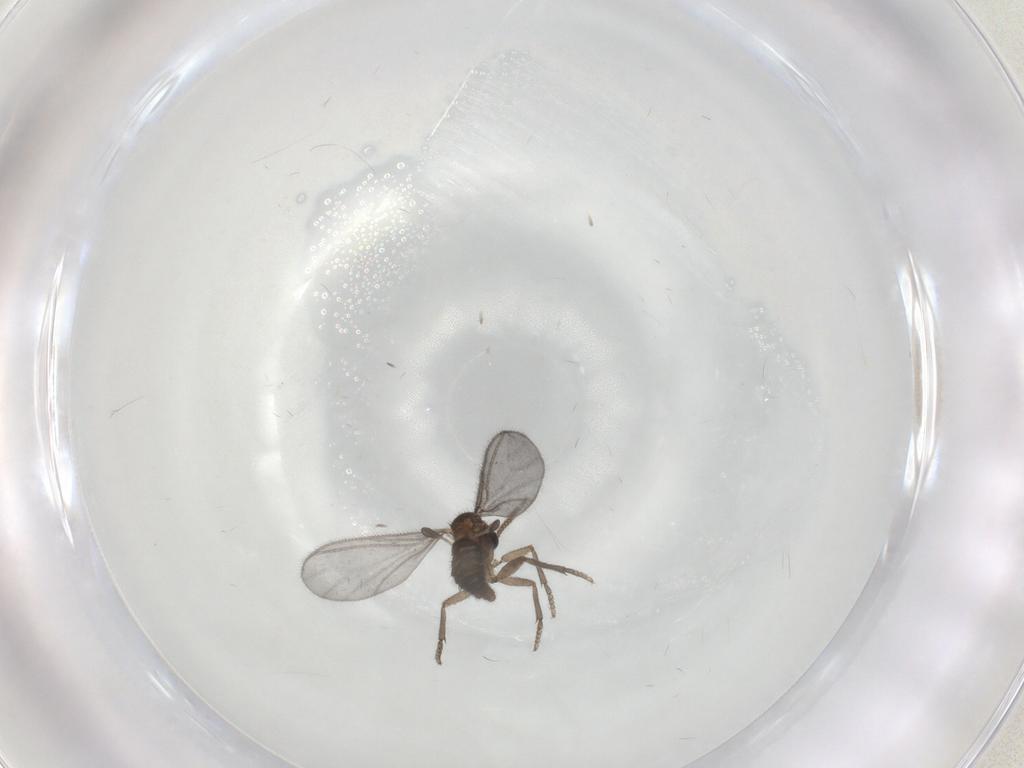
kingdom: Animalia
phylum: Arthropoda
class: Insecta
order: Diptera
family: Sciaridae
